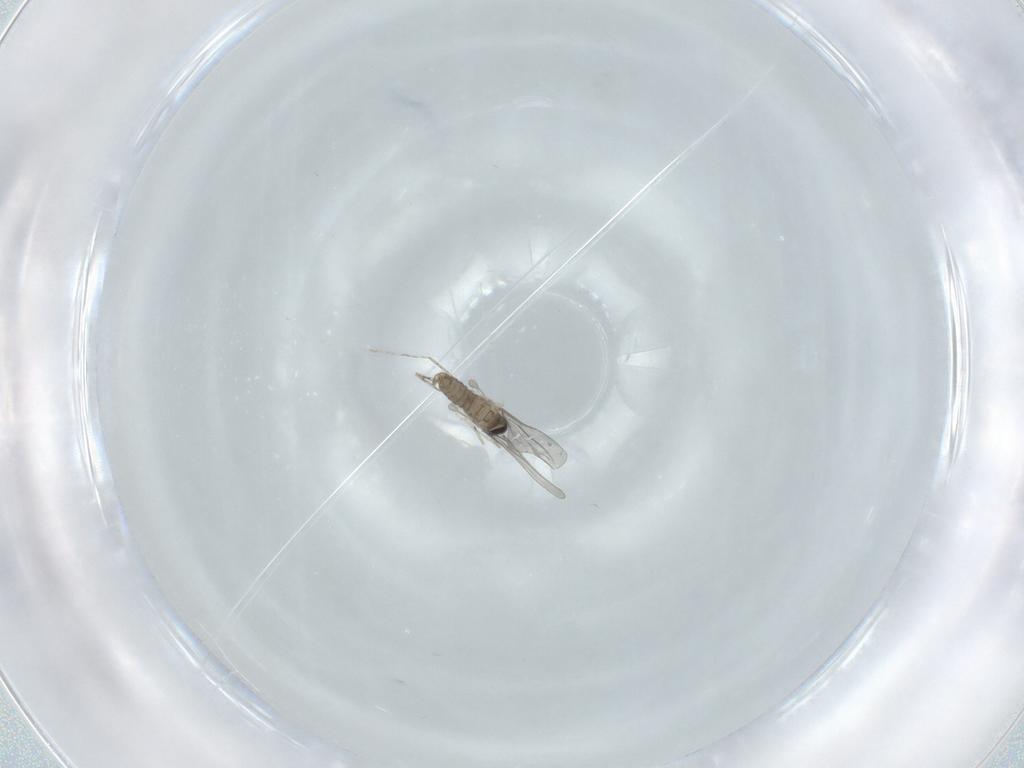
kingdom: Animalia
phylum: Arthropoda
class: Insecta
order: Diptera
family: Cecidomyiidae
